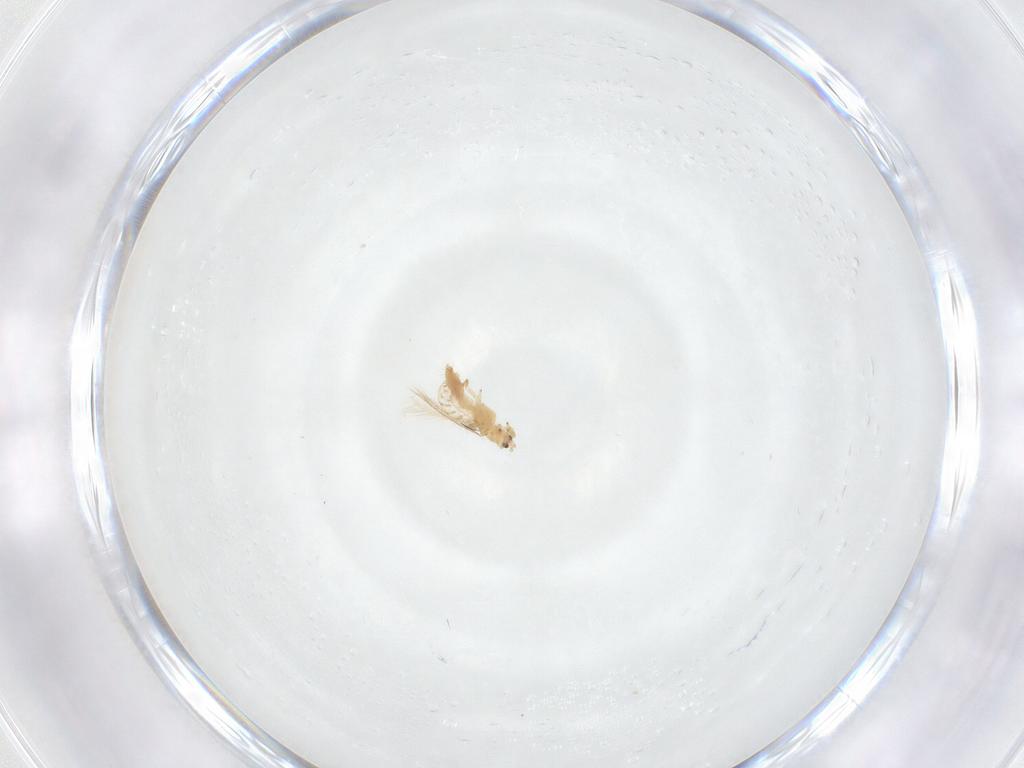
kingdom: Animalia
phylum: Arthropoda
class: Insecta
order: Thysanoptera
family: Thripidae
